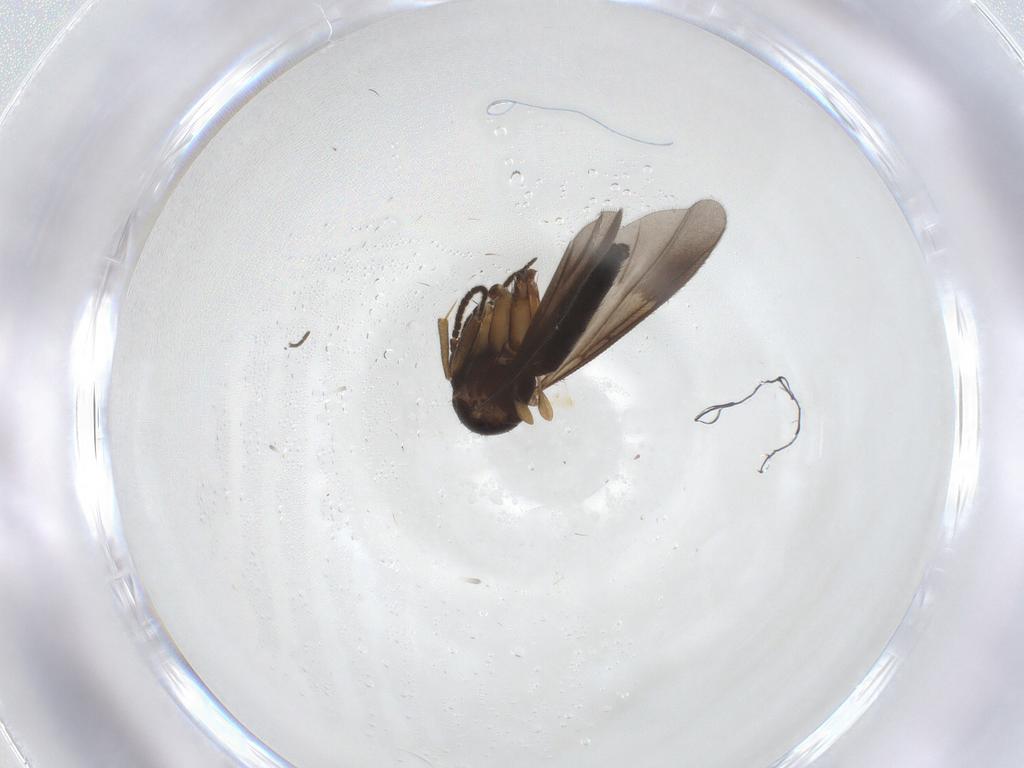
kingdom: Animalia
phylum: Arthropoda
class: Insecta
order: Diptera
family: Mycetophilidae
